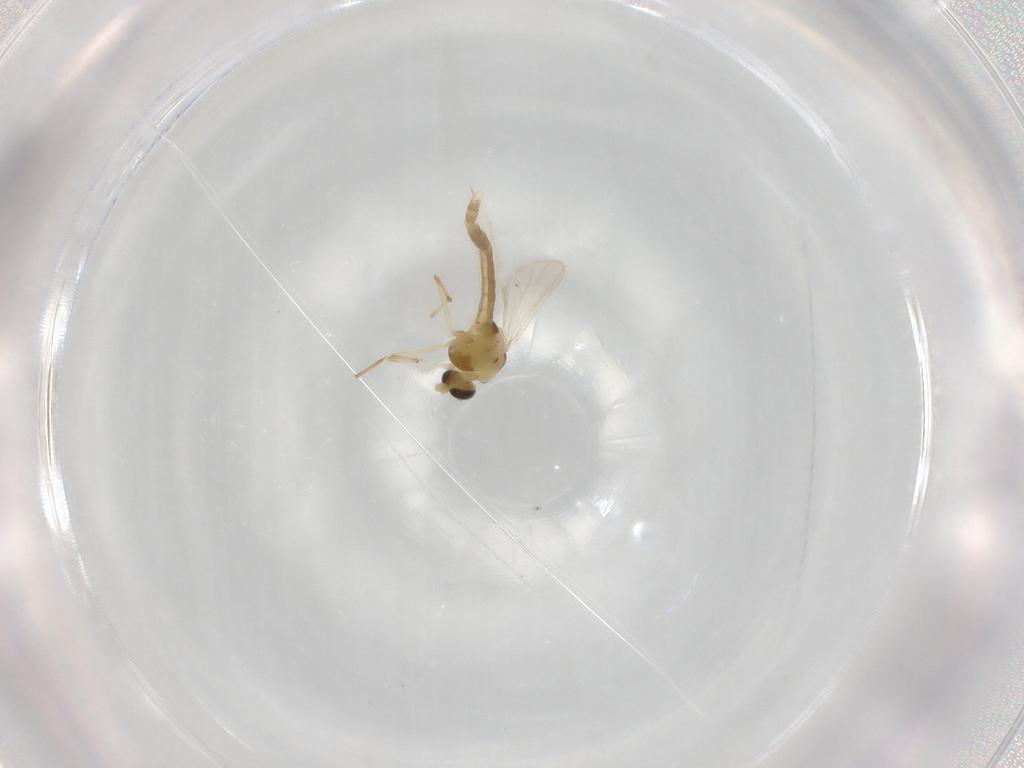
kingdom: Animalia
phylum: Arthropoda
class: Insecta
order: Diptera
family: Chironomidae
